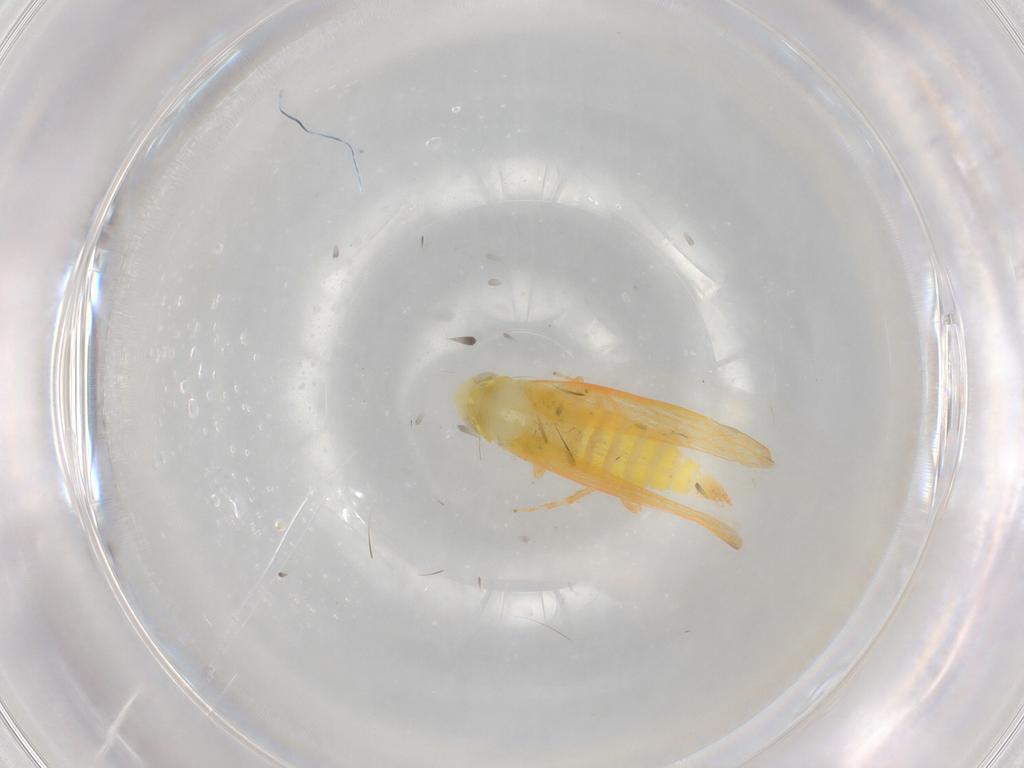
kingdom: Animalia
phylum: Arthropoda
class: Insecta
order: Hemiptera
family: Cicadellidae
